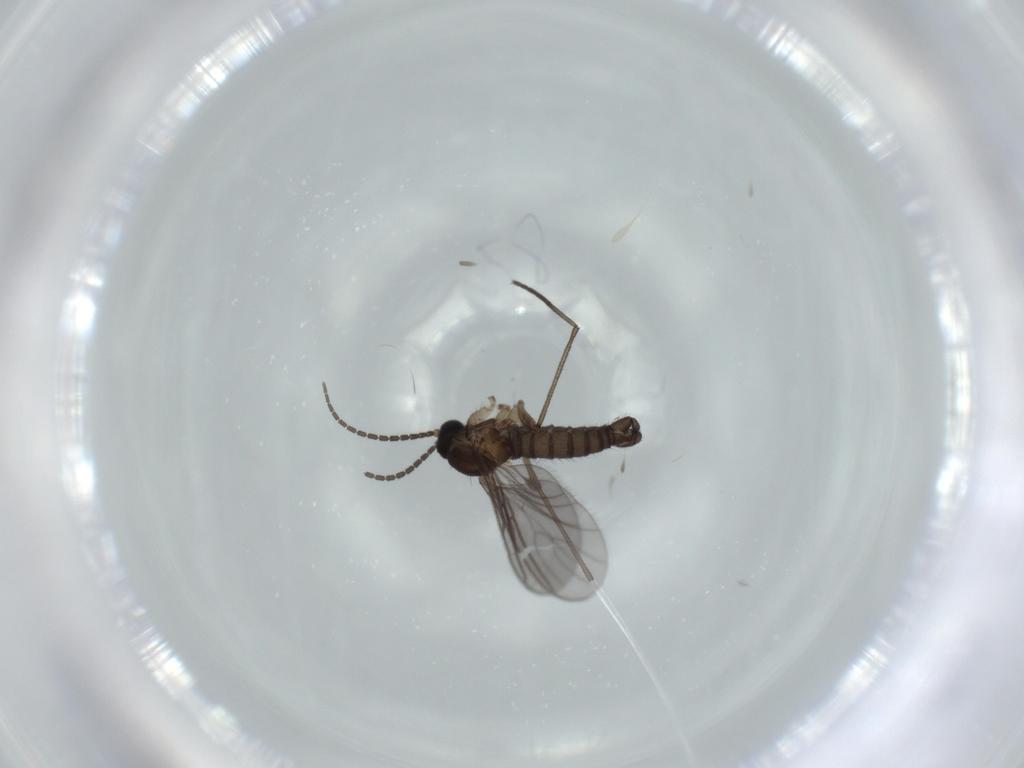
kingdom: Animalia
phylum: Arthropoda
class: Insecta
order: Diptera
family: Sciaridae
